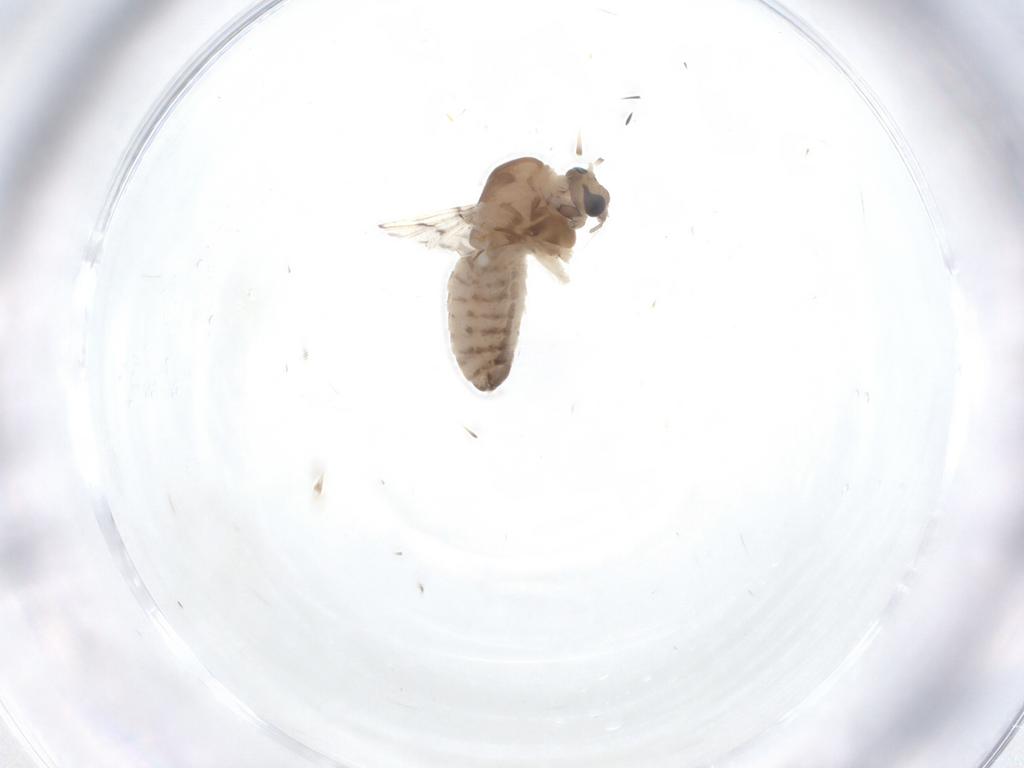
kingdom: Animalia
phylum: Arthropoda
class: Insecta
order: Diptera
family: Chironomidae
